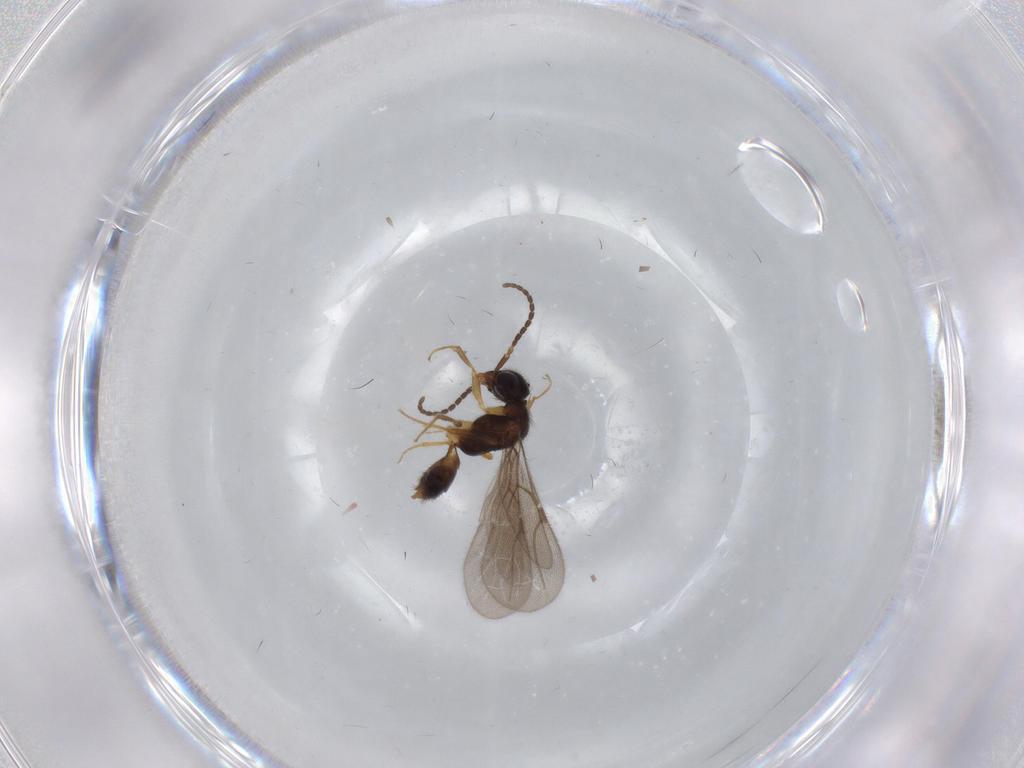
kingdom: Animalia
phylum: Arthropoda
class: Insecta
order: Hymenoptera
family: Bethylidae
